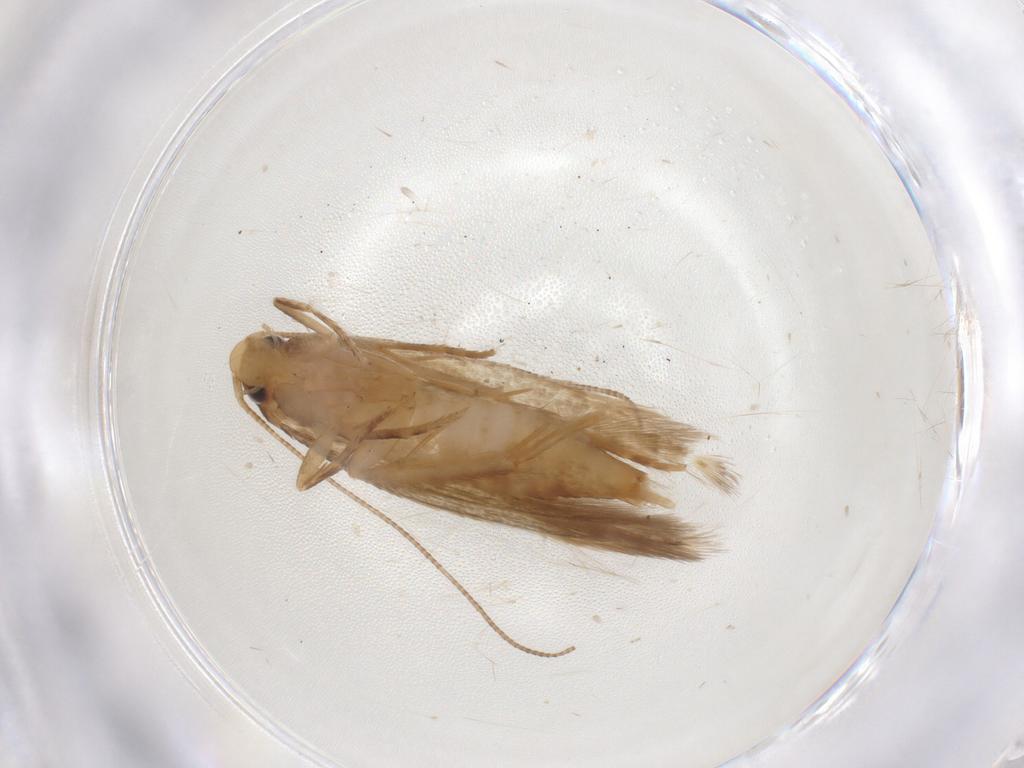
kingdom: Animalia
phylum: Arthropoda
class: Insecta
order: Lepidoptera
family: Tineidae
